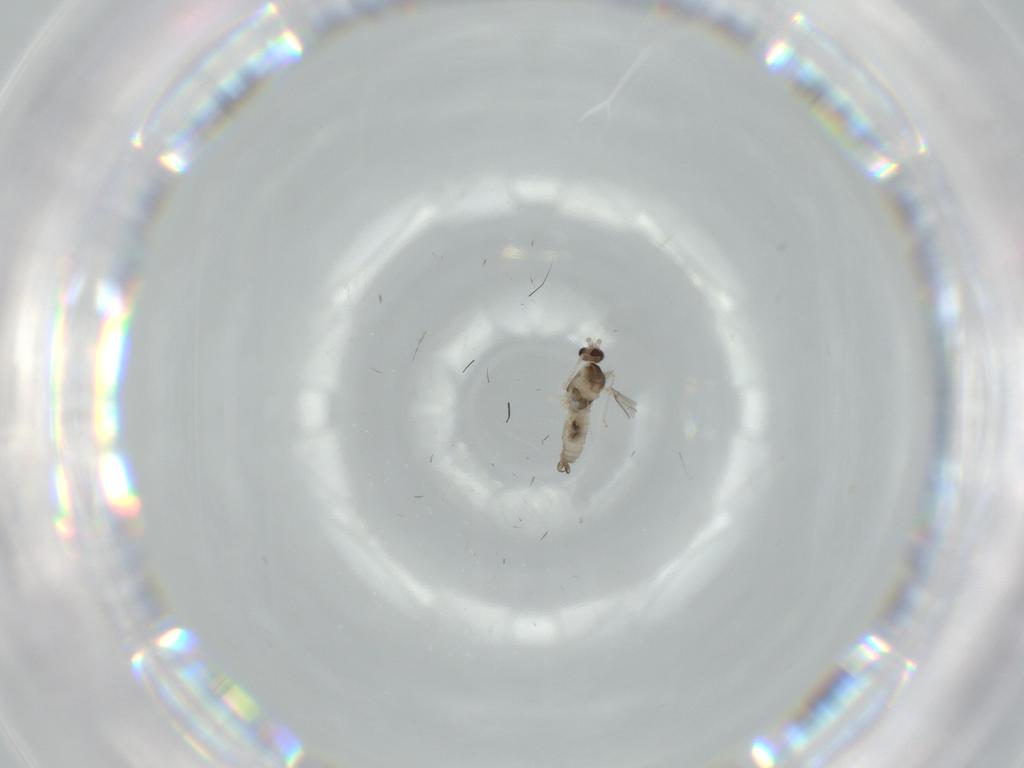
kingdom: Animalia
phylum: Arthropoda
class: Insecta
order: Diptera
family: Cecidomyiidae
